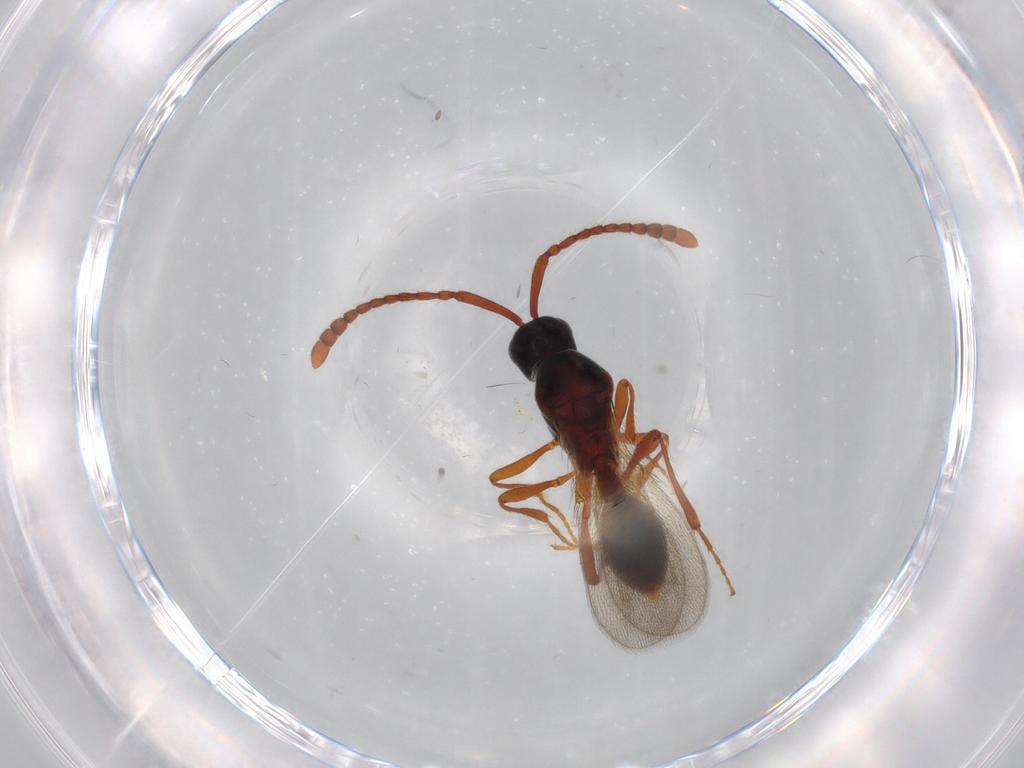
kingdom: Animalia
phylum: Arthropoda
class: Insecta
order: Hymenoptera
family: Diapriidae
